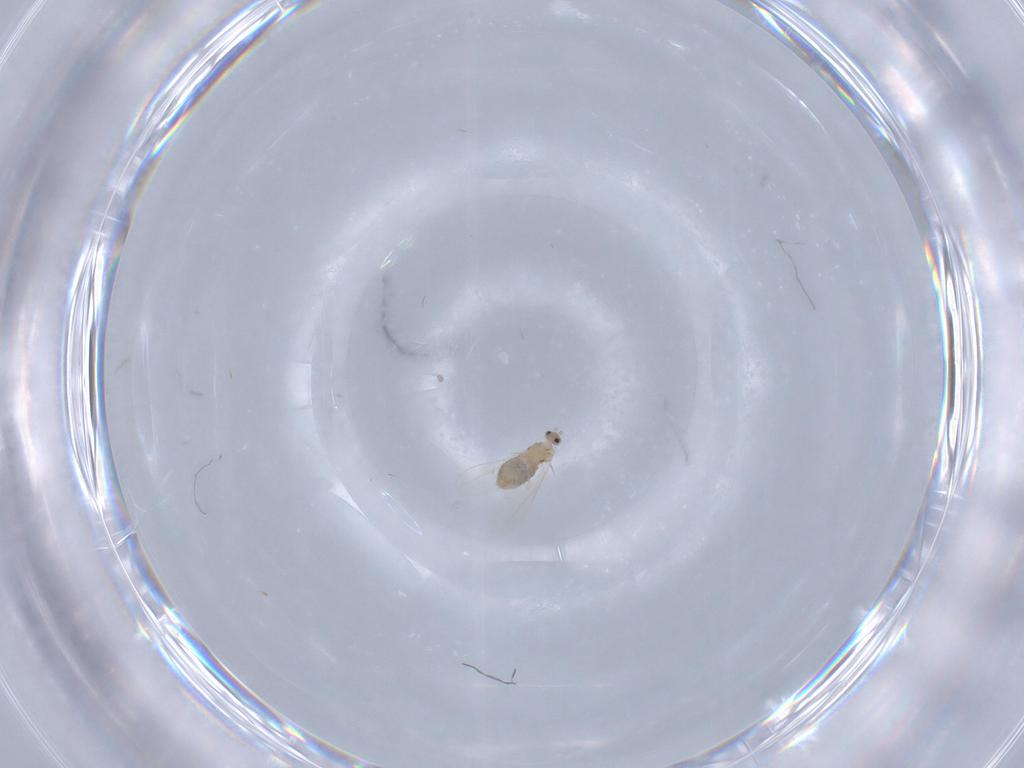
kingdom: Animalia
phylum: Arthropoda
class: Insecta
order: Diptera
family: Cecidomyiidae
